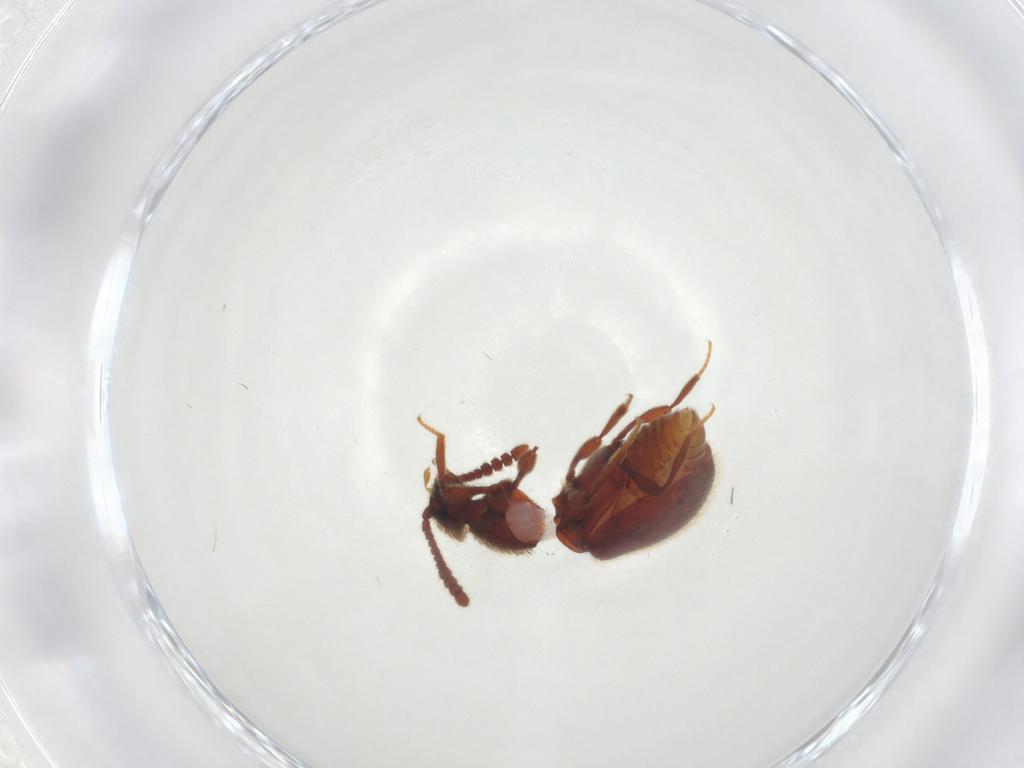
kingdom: Animalia
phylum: Arthropoda
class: Insecta
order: Coleoptera
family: Staphylinidae
